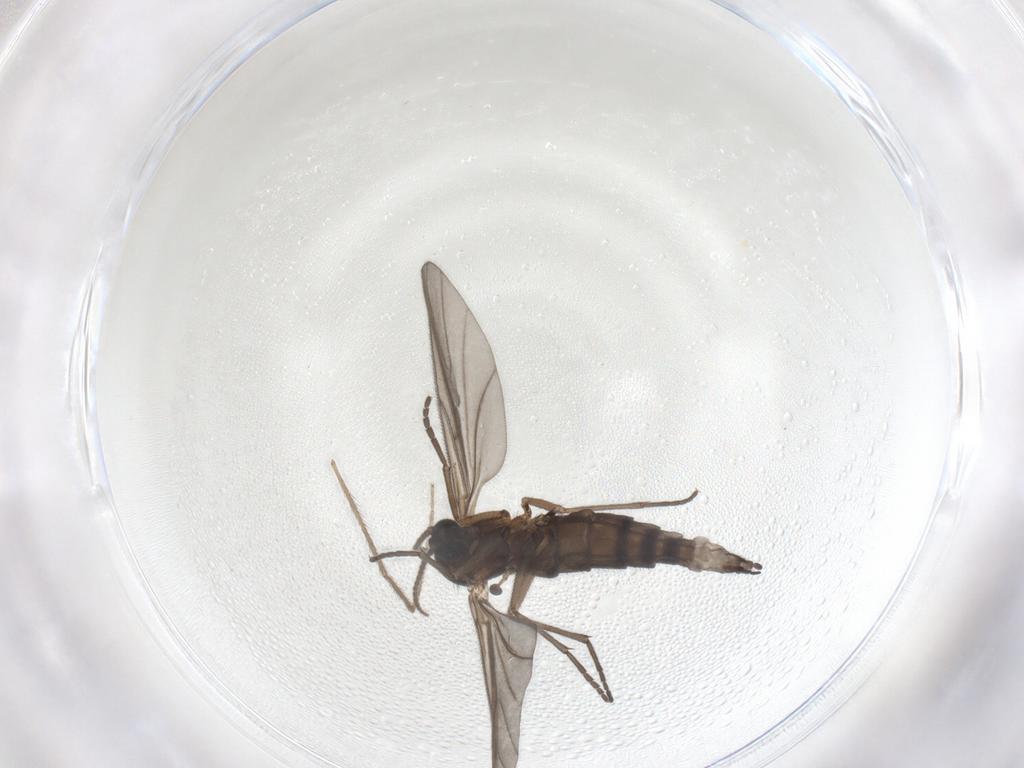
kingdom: Animalia
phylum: Arthropoda
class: Insecta
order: Diptera
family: Sciaridae
